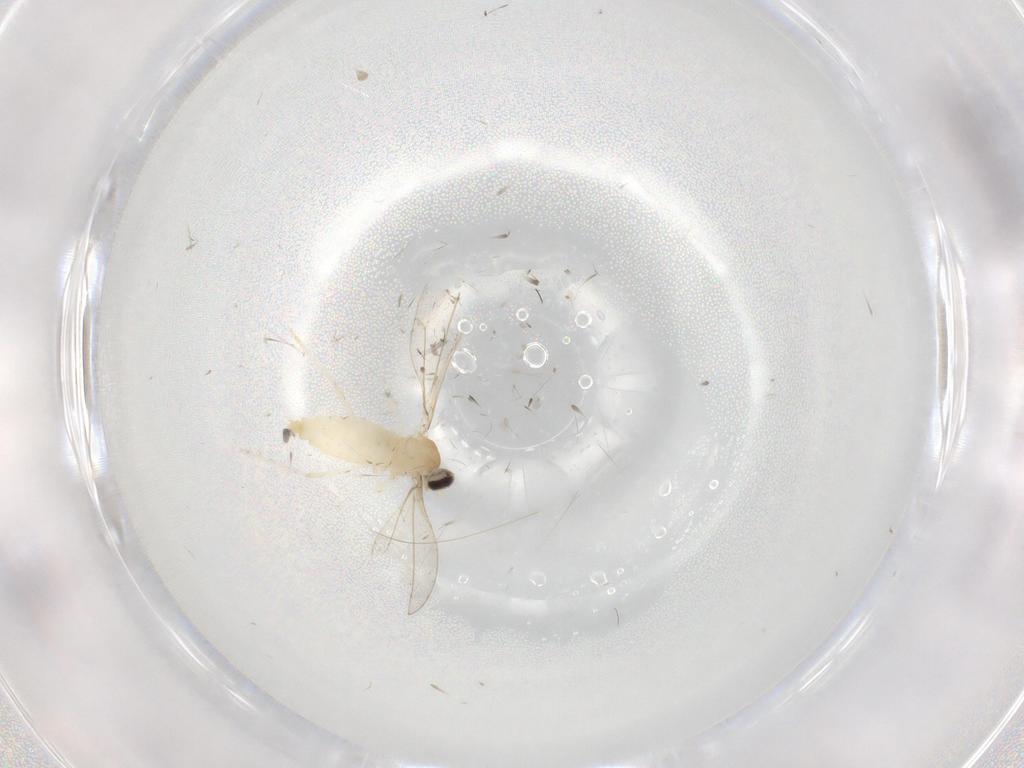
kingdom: Animalia
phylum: Arthropoda
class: Insecta
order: Diptera
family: Cecidomyiidae
